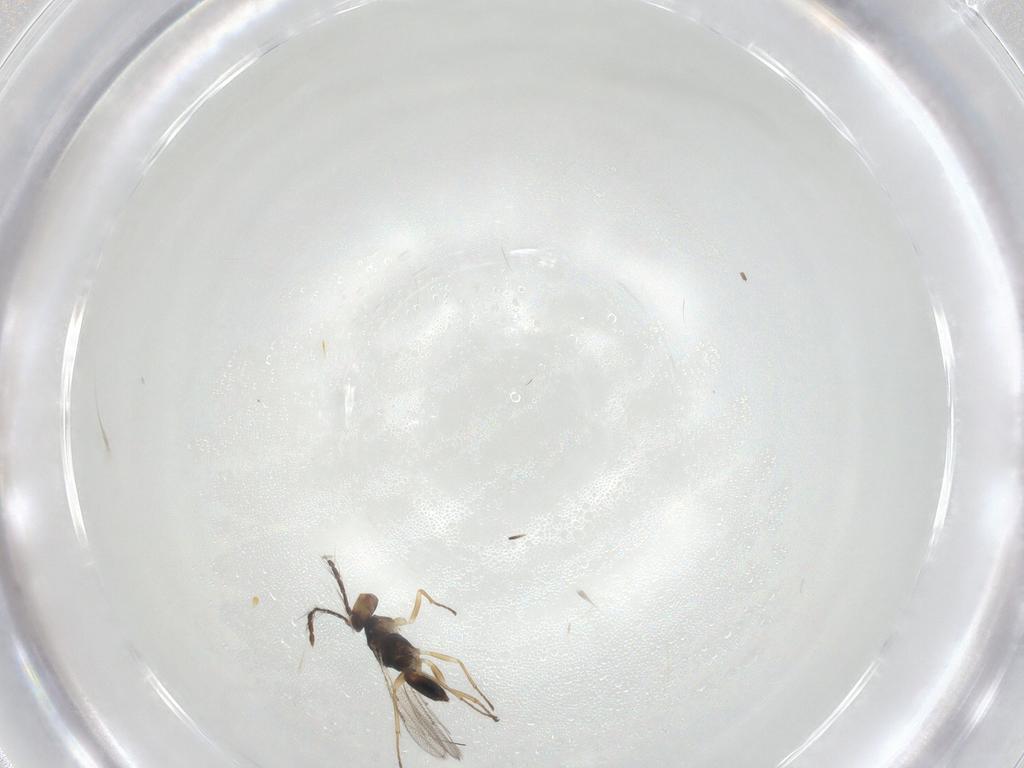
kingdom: Animalia
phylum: Arthropoda
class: Insecta
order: Hymenoptera
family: Eulophidae
